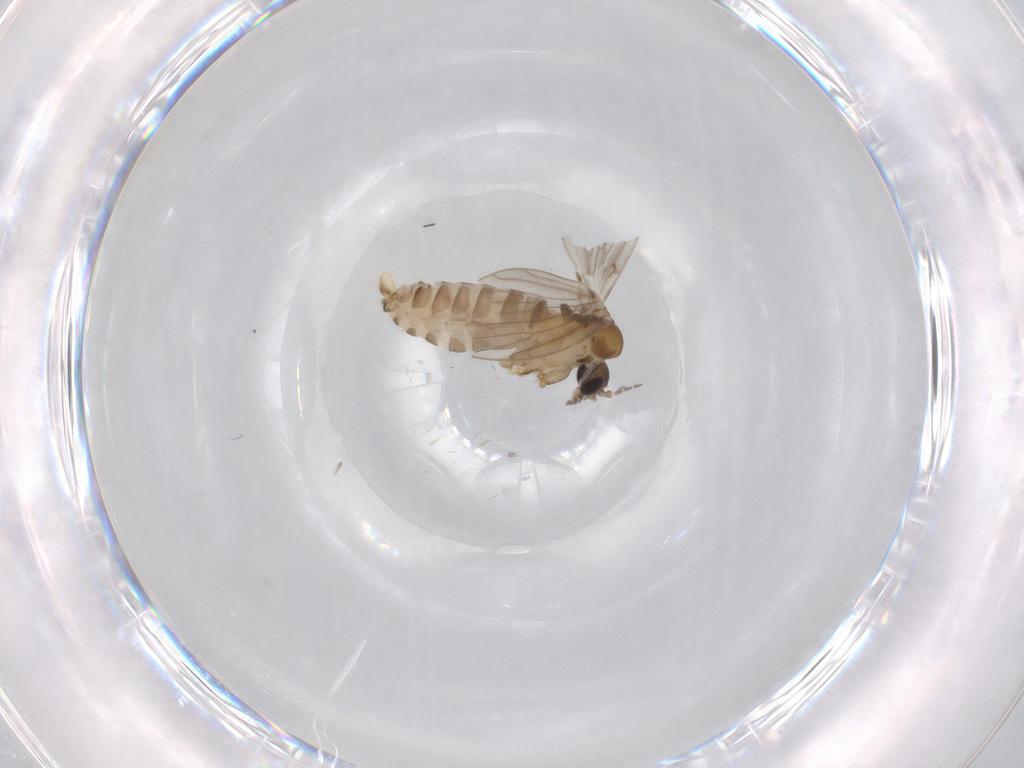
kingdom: Animalia
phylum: Arthropoda
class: Insecta
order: Diptera
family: Psychodidae
